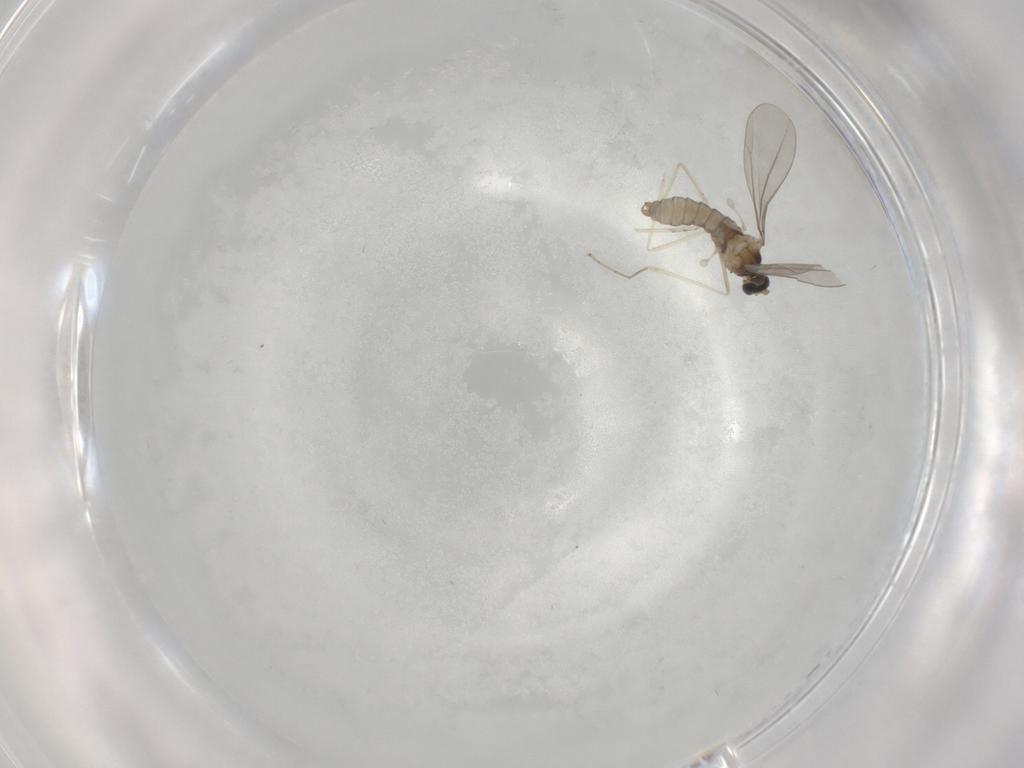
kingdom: Animalia
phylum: Arthropoda
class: Insecta
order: Diptera
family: Cecidomyiidae
